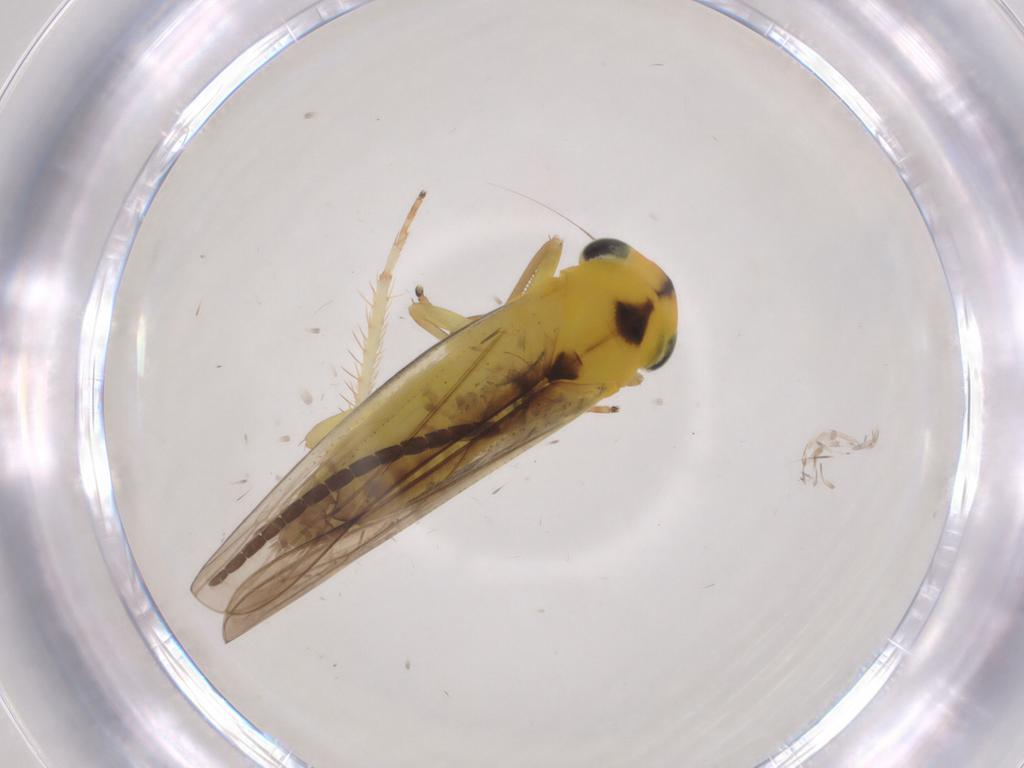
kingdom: Animalia
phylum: Arthropoda
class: Insecta
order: Hemiptera
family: Cicadellidae
